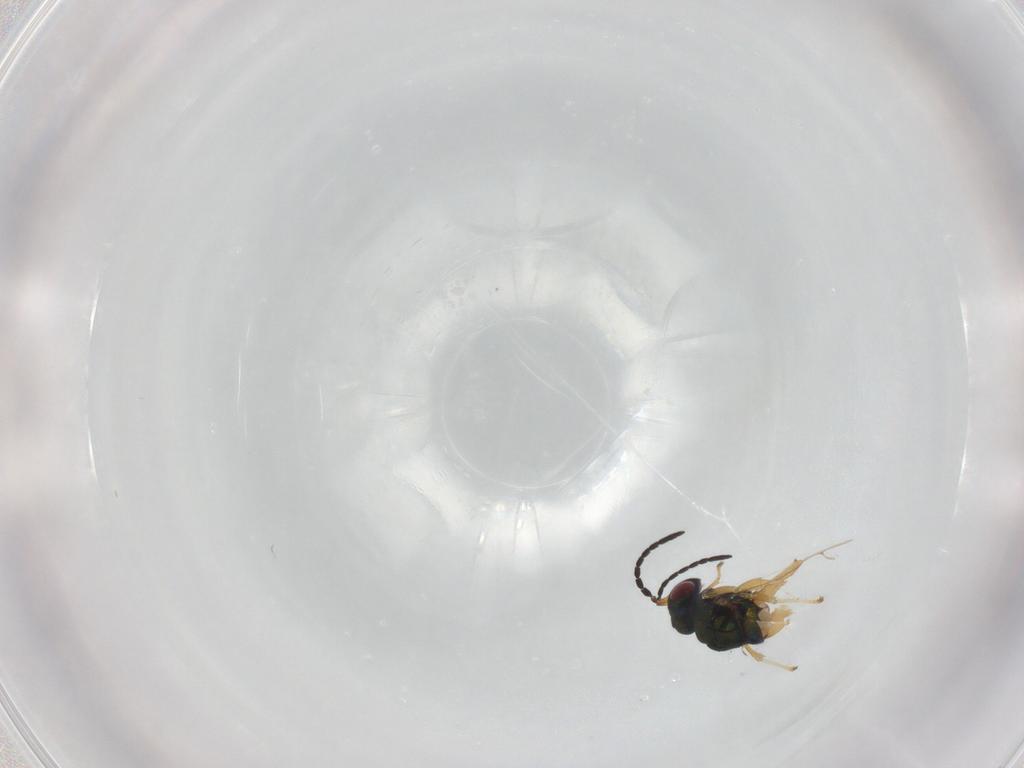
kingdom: Animalia
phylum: Arthropoda
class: Insecta
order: Hymenoptera
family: Agaonidae
